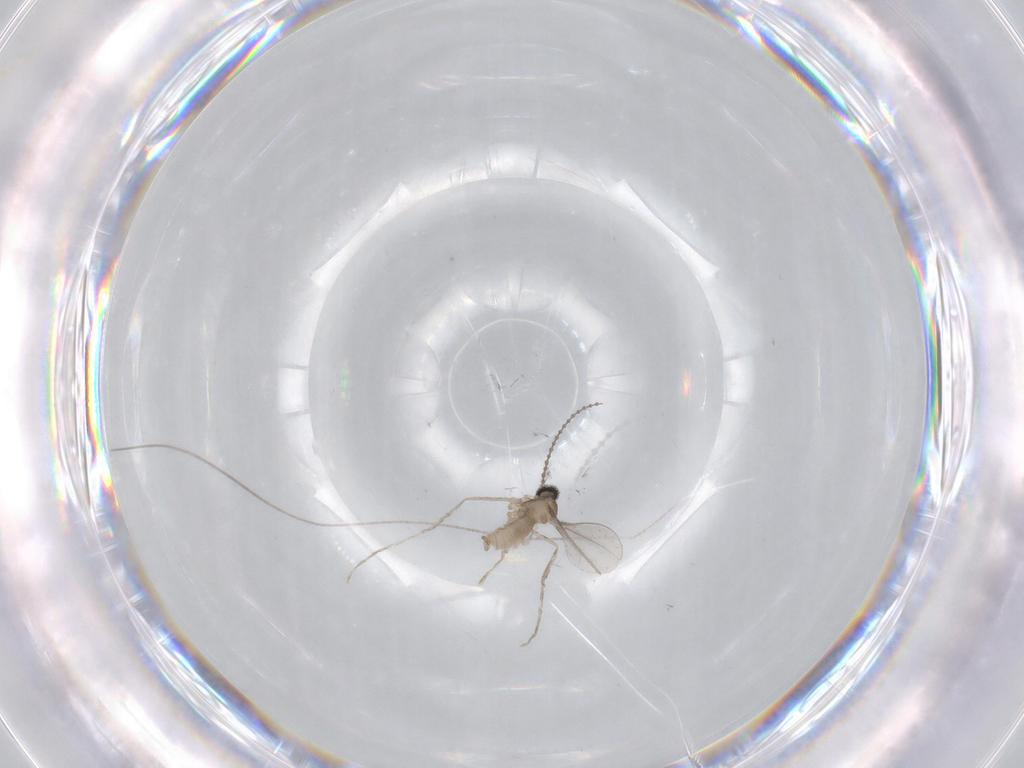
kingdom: Animalia
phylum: Arthropoda
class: Insecta
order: Diptera
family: Cecidomyiidae
